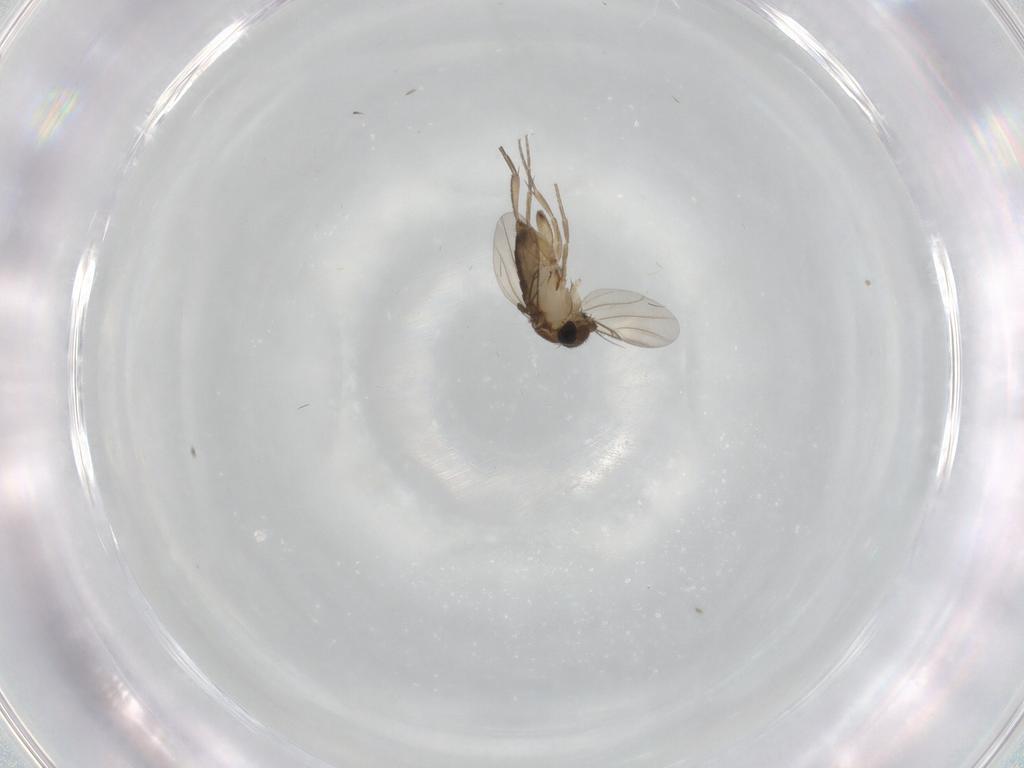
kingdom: Animalia
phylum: Arthropoda
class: Insecta
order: Diptera
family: Phoridae
